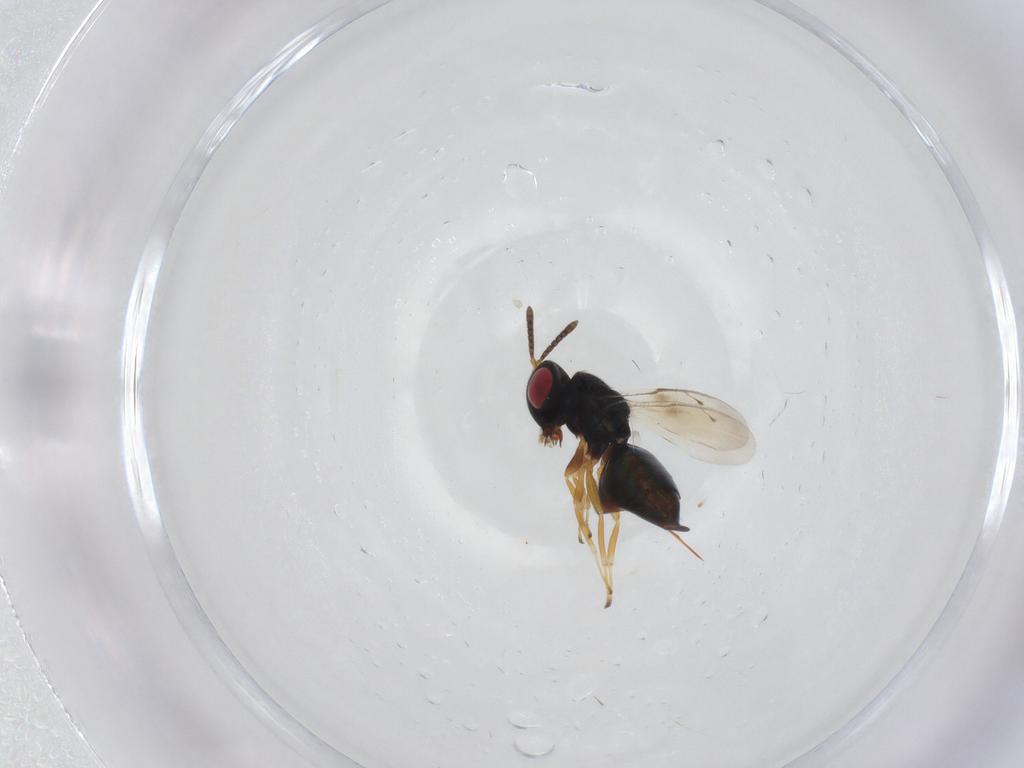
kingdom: Animalia
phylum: Arthropoda
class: Insecta
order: Hymenoptera
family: Pteromalidae
